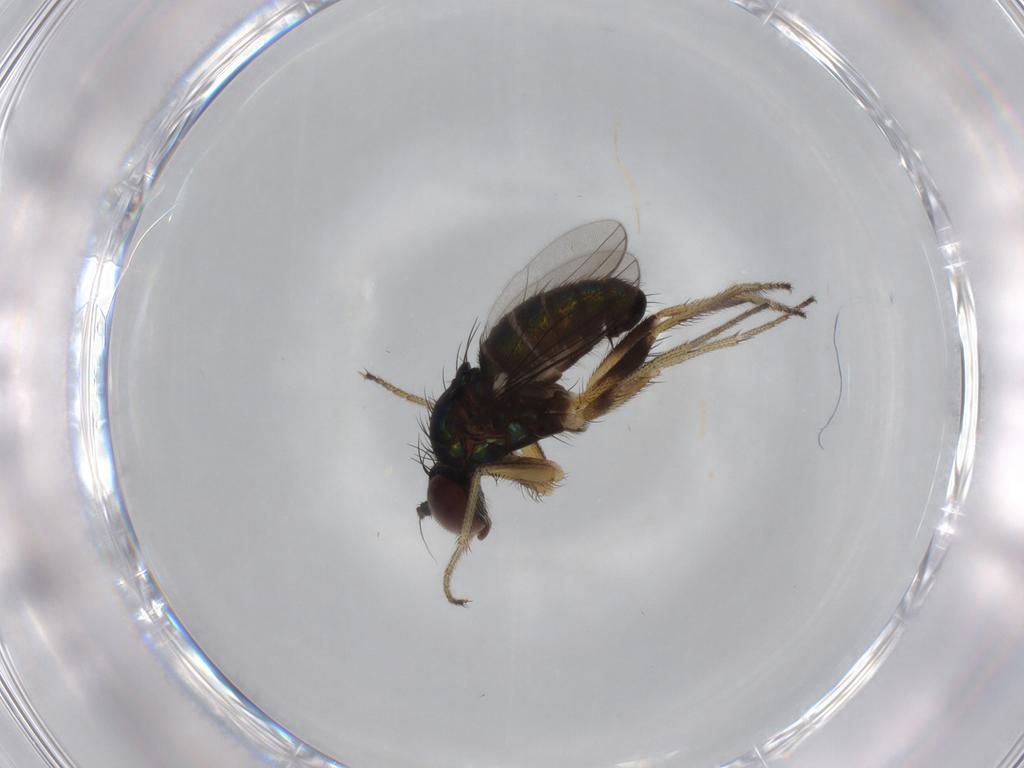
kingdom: Animalia
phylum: Arthropoda
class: Insecta
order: Diptera
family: Dolichopodidae
